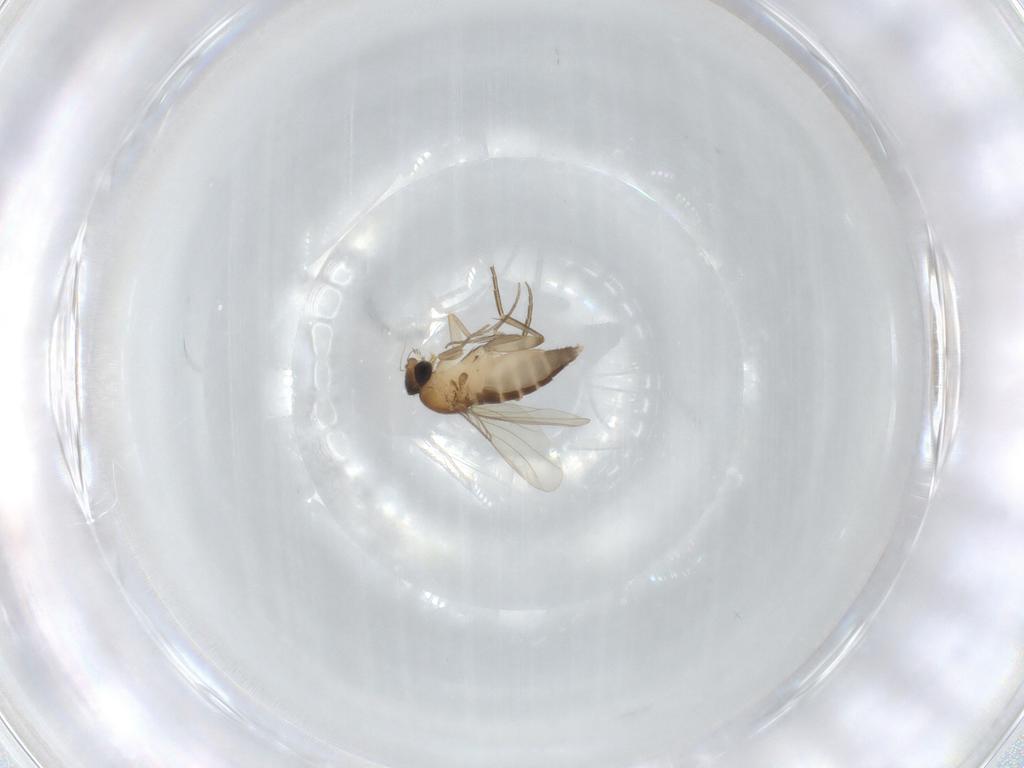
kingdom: Animalia
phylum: Arthropoda
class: Insecta
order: Diptera
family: Phoridae
